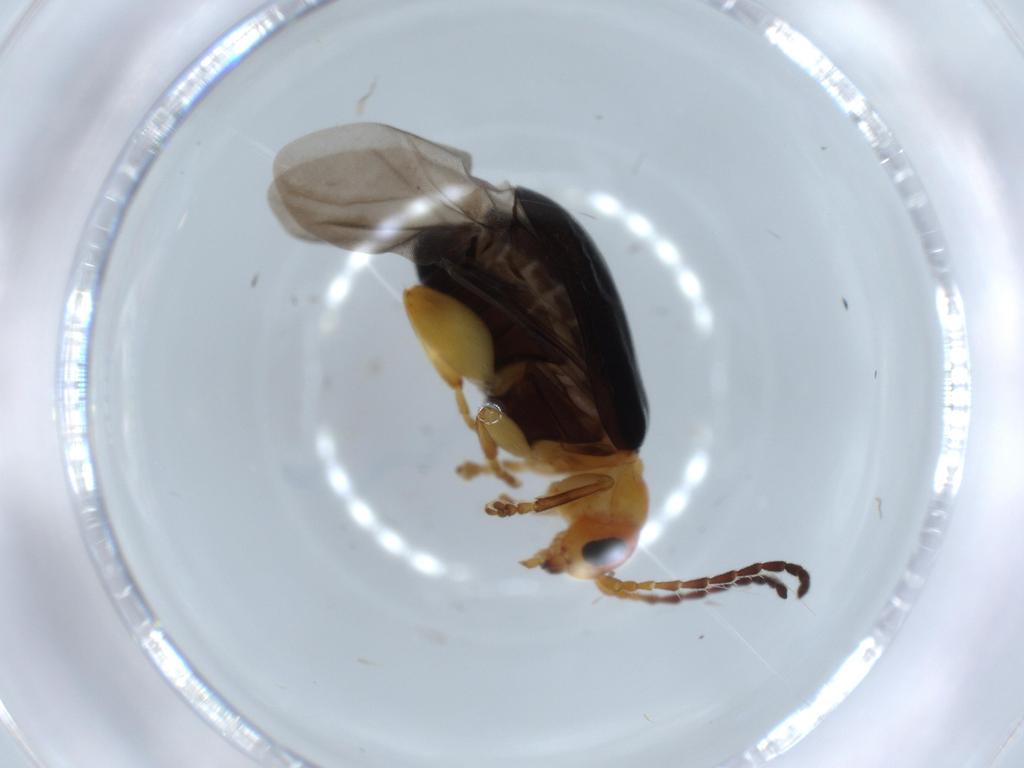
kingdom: Animalia
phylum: Arthropoda
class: Insecta
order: Coleoptera
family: Chrysomelidae
